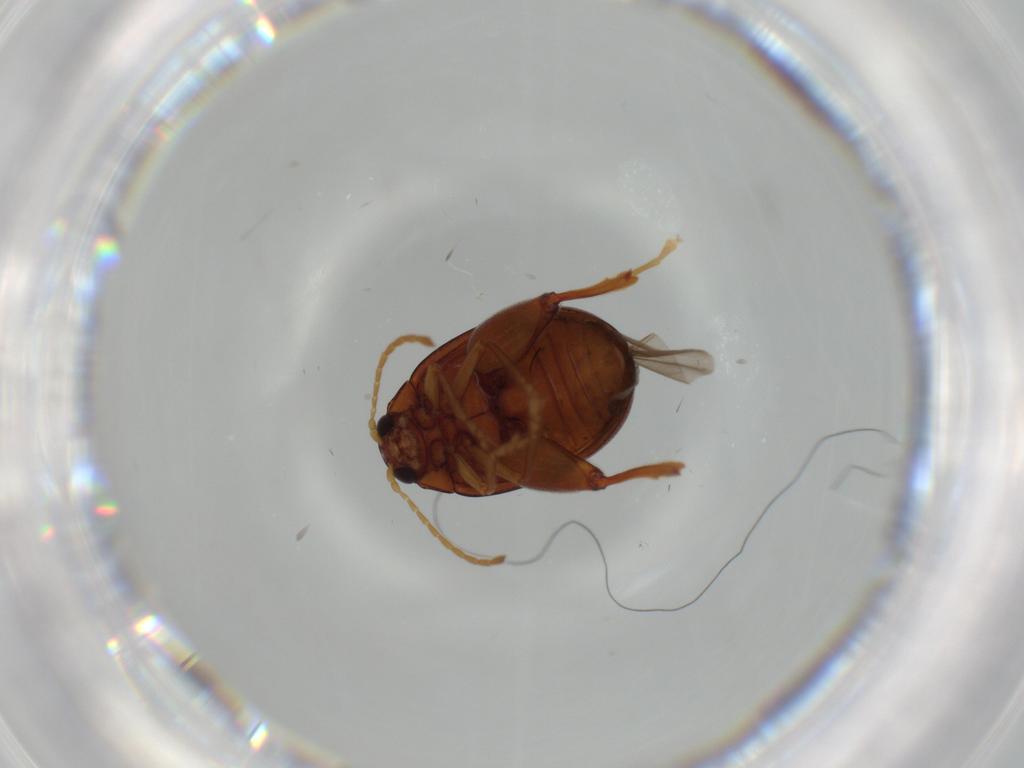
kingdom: Animalia
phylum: Arthropoda
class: Insecta
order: Coleoptera
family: Chrysomelidae
